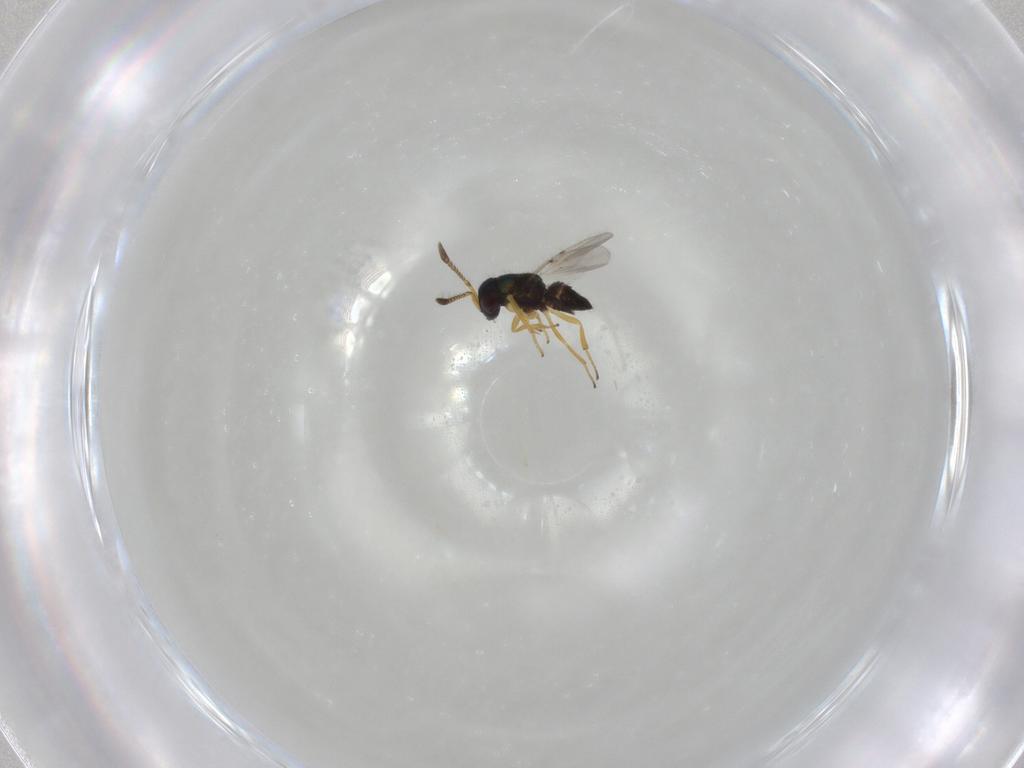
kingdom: Animalia
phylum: Arthropoda
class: Insecta
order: Hymenoptera
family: Encyrtidae
